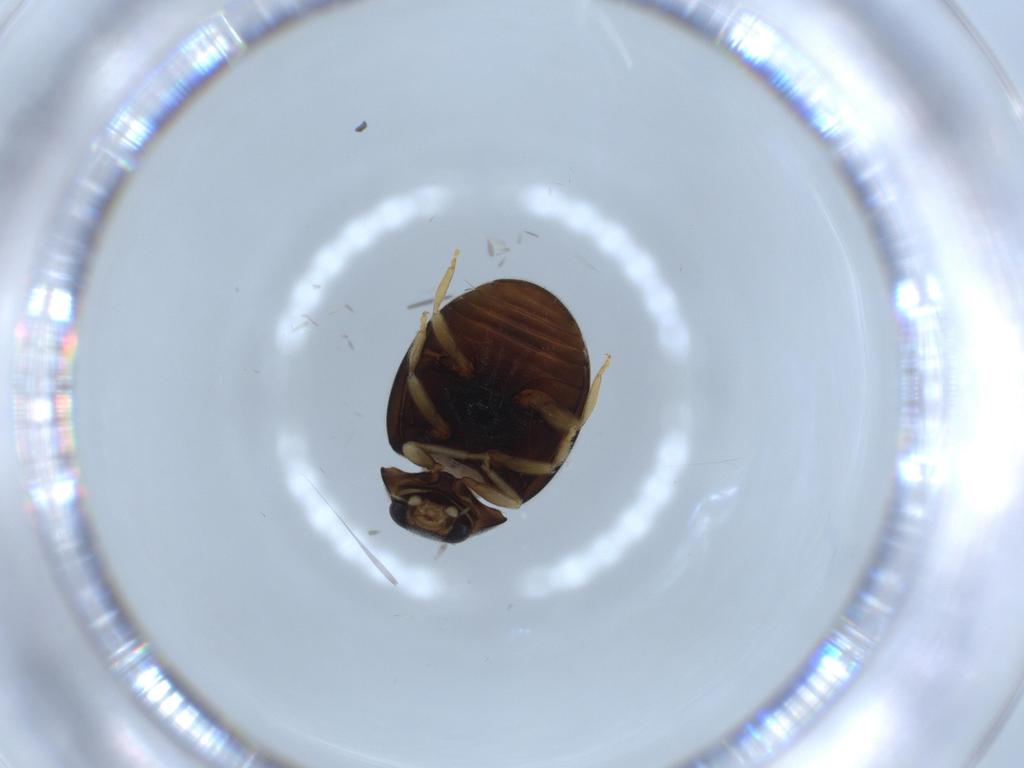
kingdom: Animalia
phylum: Arthropoda
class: Insecta
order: Coleoptera
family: Coccinellidae
